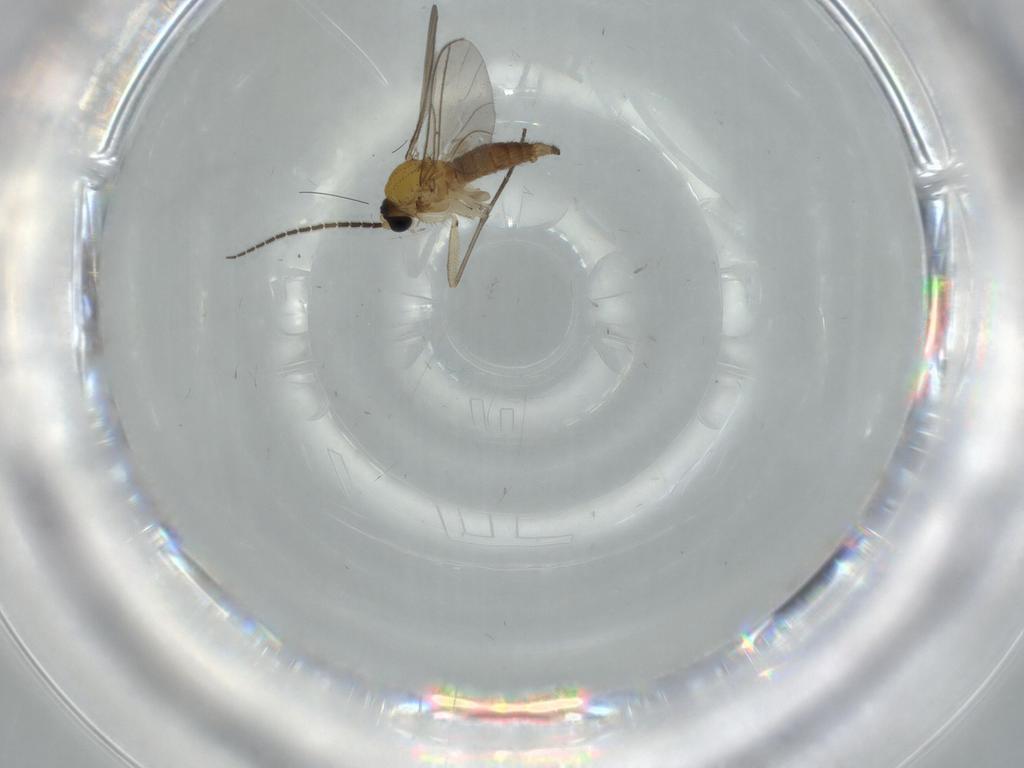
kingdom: Animalia
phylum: Arthropoda
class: Insecta
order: Diptera
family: Sciaridae
